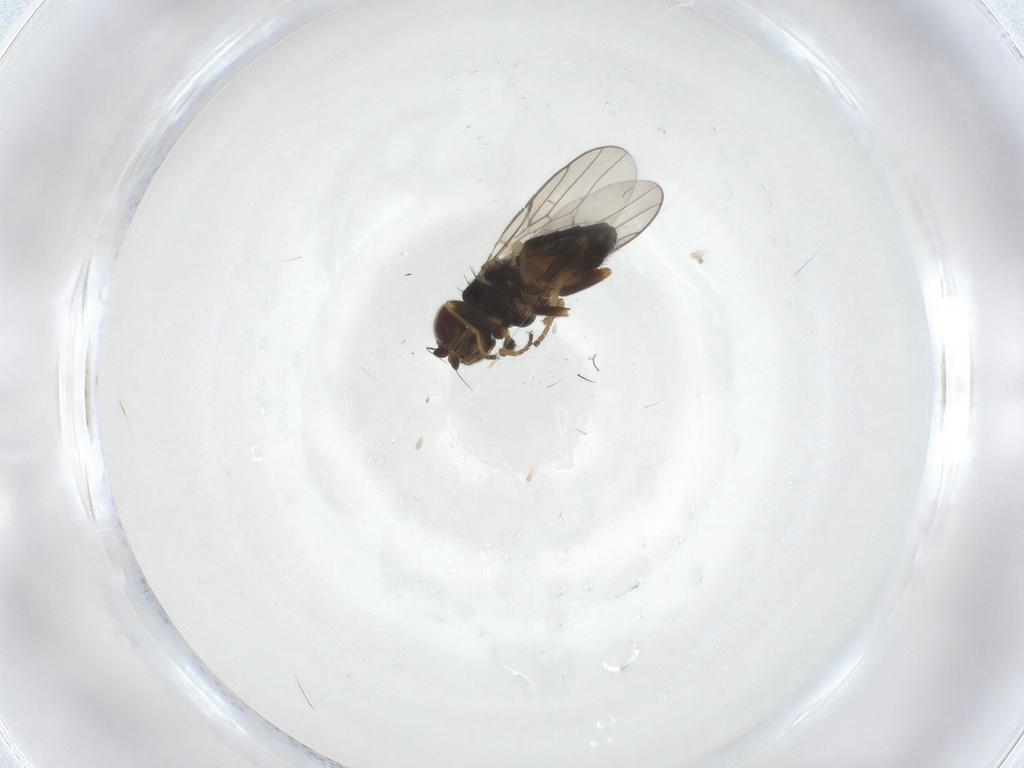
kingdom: Animalia
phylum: Arthropoda
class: Insecta
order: Diptera
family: Chloropidae
